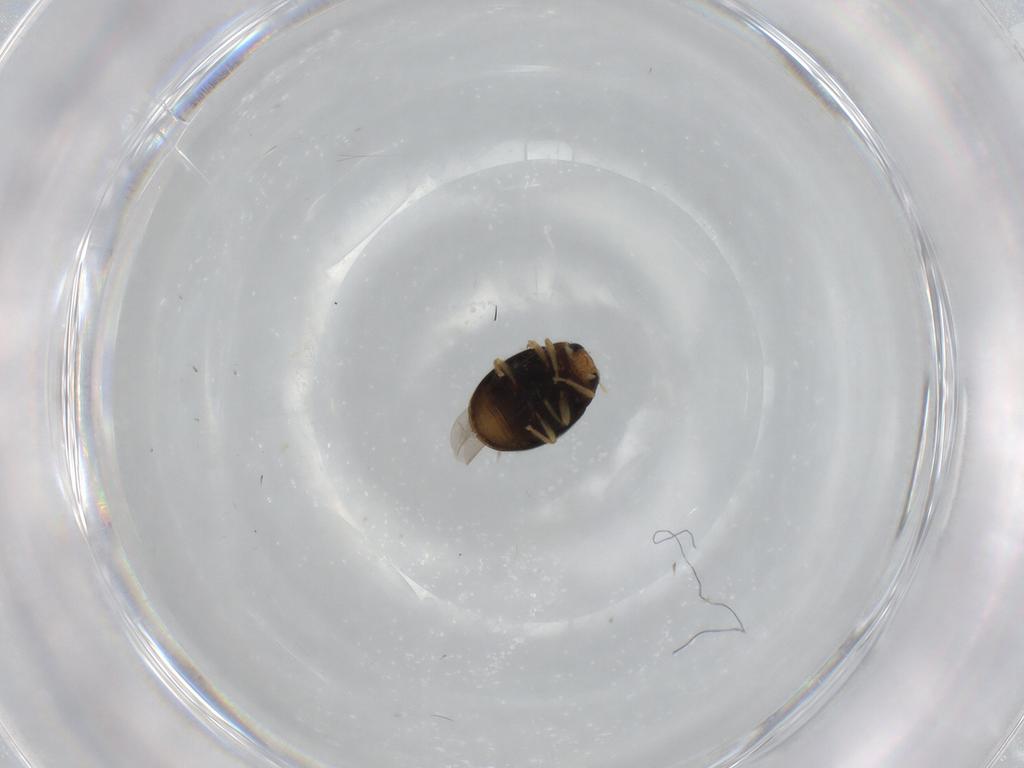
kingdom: Animalia
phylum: Arthropoda
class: Insecta
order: Coleoptera
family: Coccinellidae
